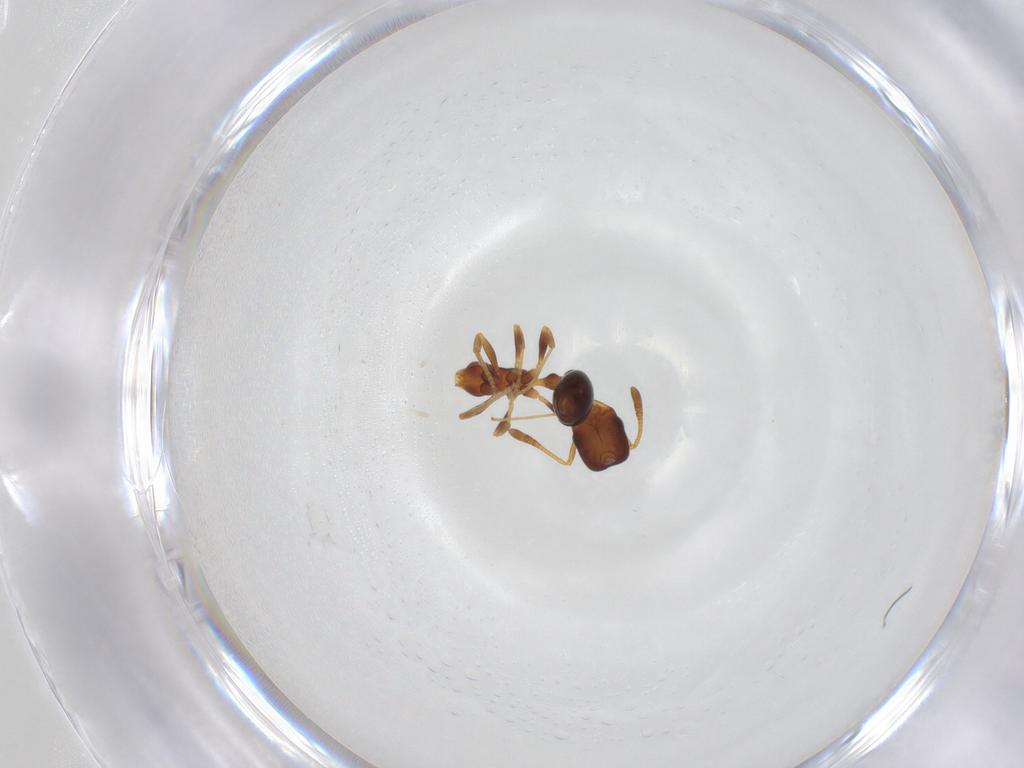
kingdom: Animalia
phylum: Arthropoda
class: Insecta
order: Hymenoptera
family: Formicidae
